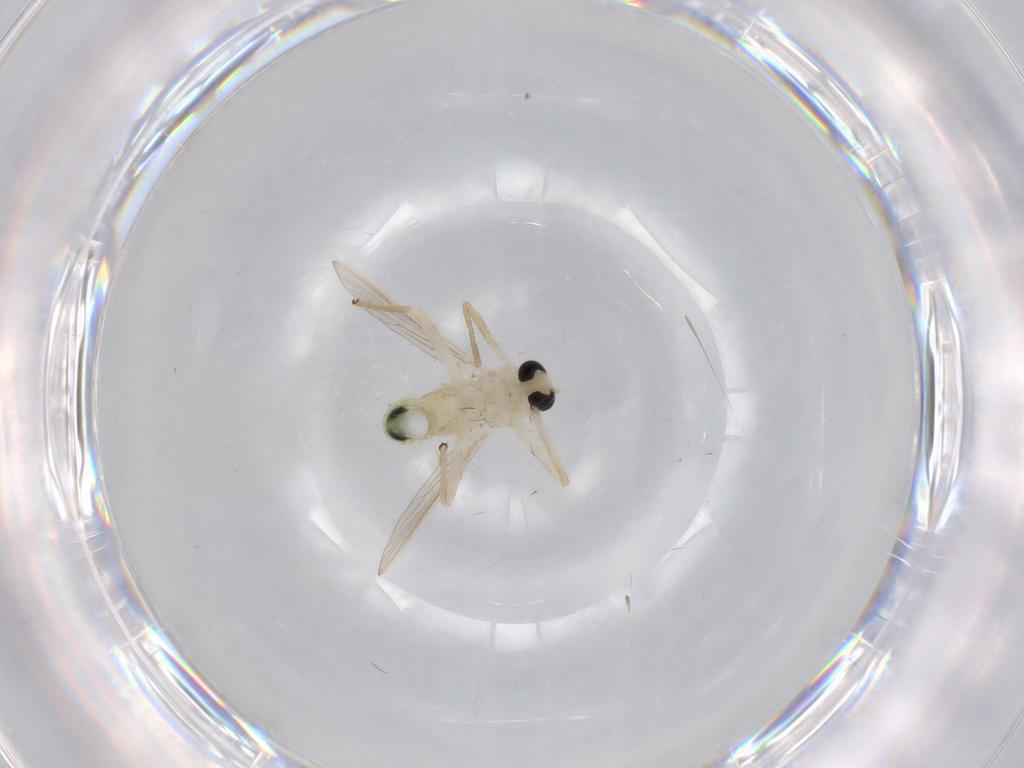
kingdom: Animalia
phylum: Arthropoda
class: Insecta
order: Diptera
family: Chironomidae
